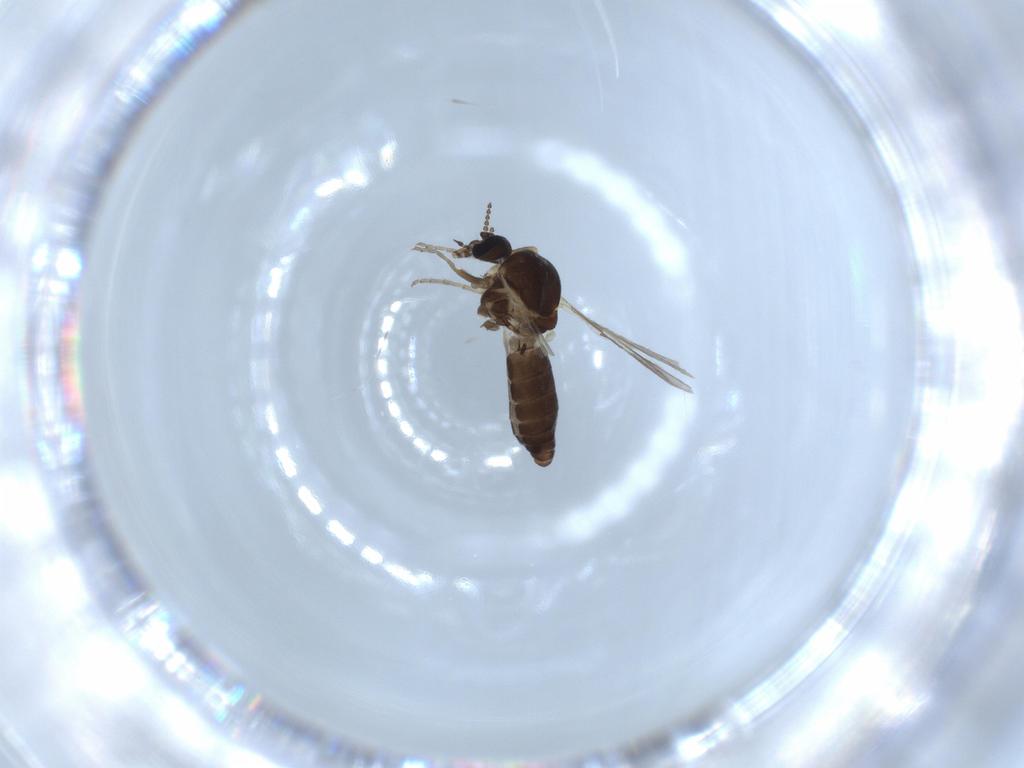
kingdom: Animalia
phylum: Arthropoda
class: Insecta
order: Diptera
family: Ceratopogonidae
